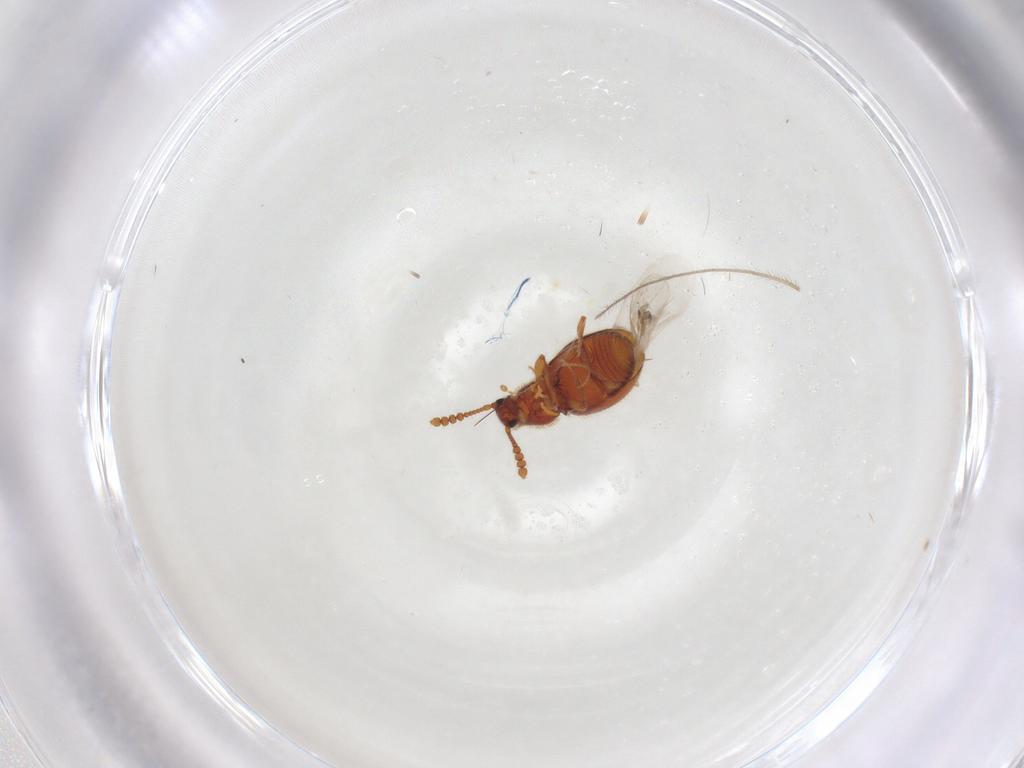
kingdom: Animalia
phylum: Arthropoda
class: Insecta
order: Coleoptera
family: Staphylinidae
